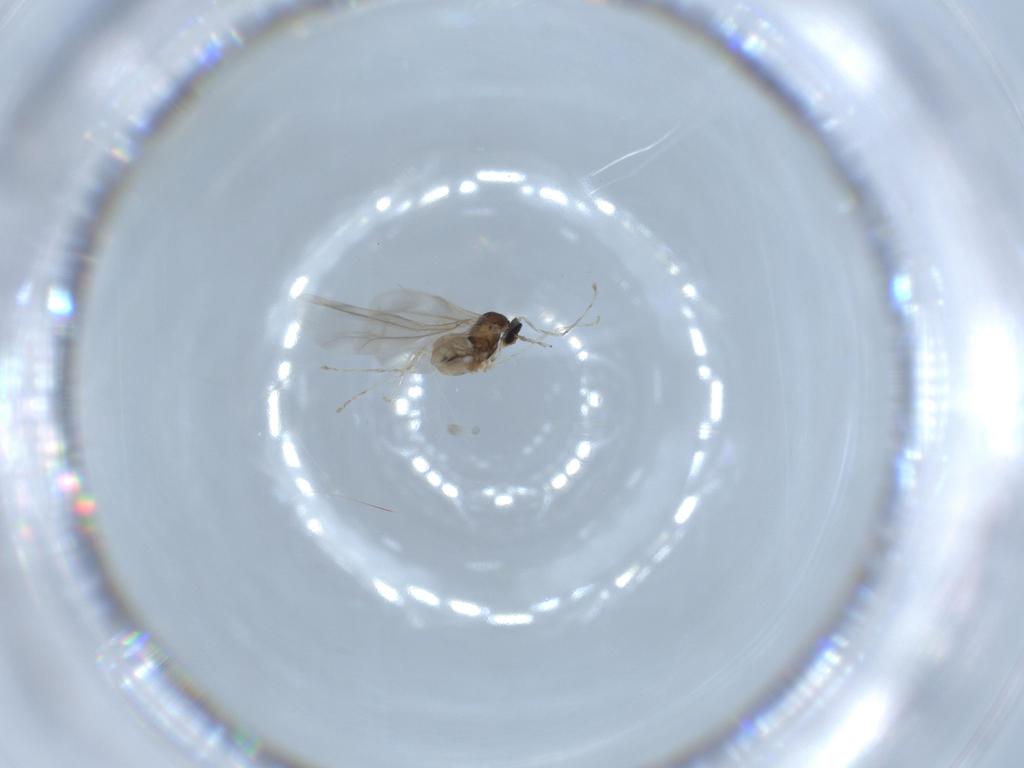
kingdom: Animalia
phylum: Arthropoda
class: Insecta
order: Diptera
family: Cecidomyiidae
